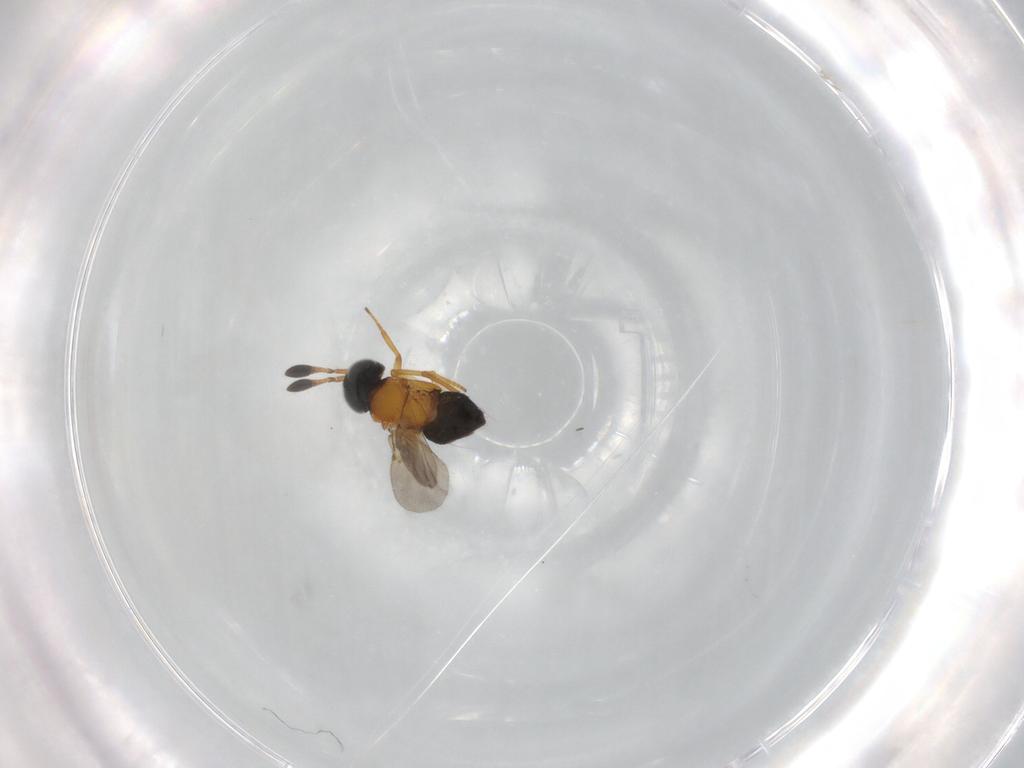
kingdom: Animalia
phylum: Arthropoda
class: Insecta
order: Hymenoptera
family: Encyrtidae
